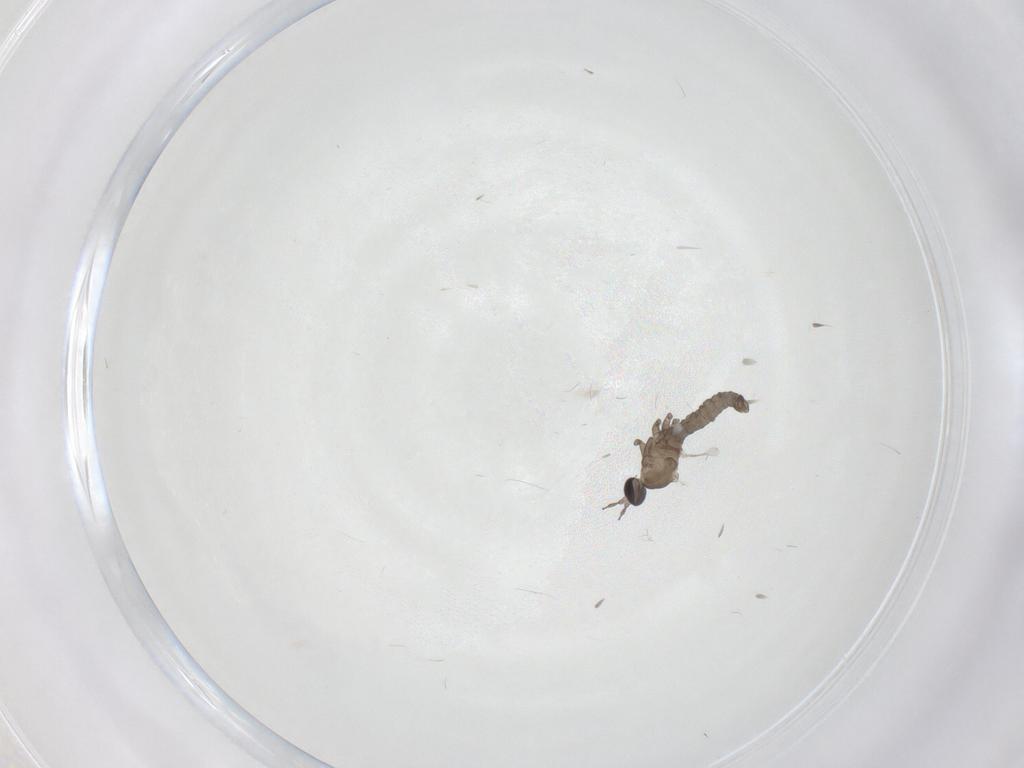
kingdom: Animalia
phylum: Arthropoda
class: Insecta
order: Diptera
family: Cecidomyiidae
